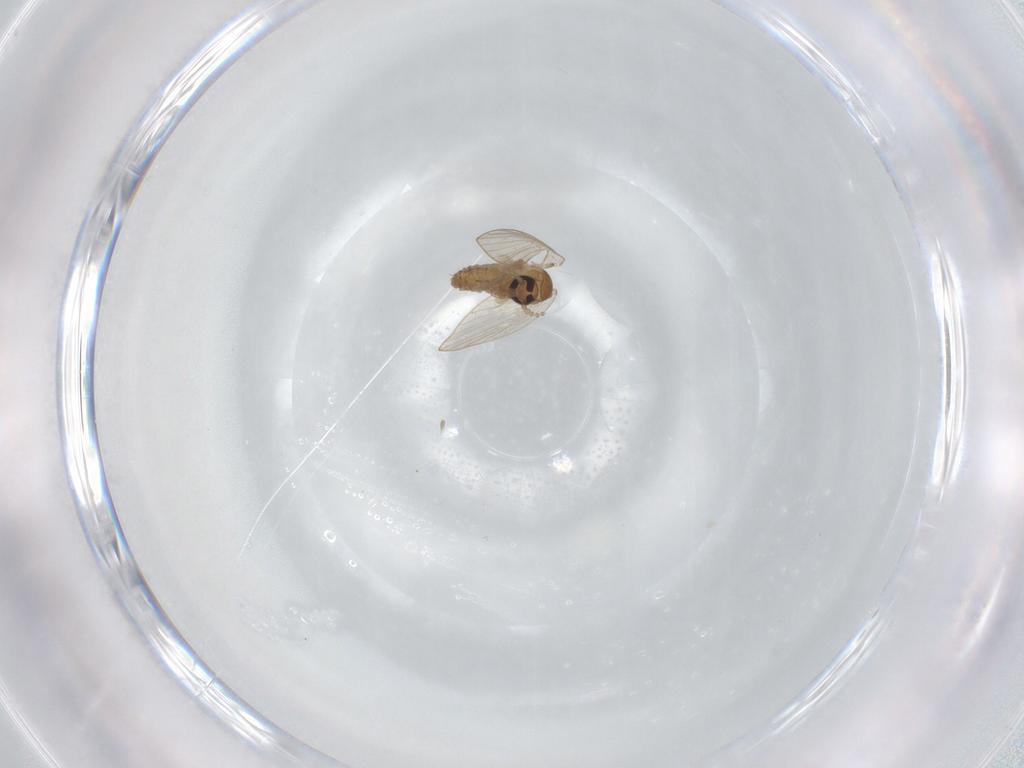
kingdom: Animalia
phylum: Arthropoda
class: Insecta
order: Diptera
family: Psychodidae
